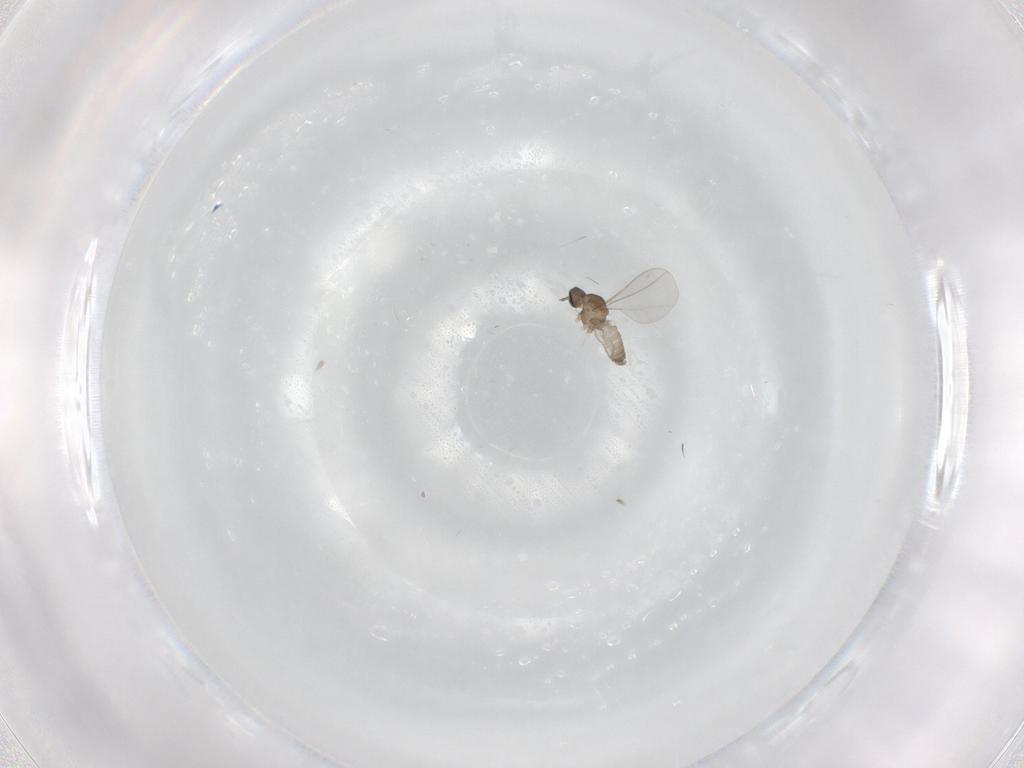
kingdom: Animalia
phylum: Arthropoda
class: Insecta
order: Diptera
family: Cecidomyiidae
